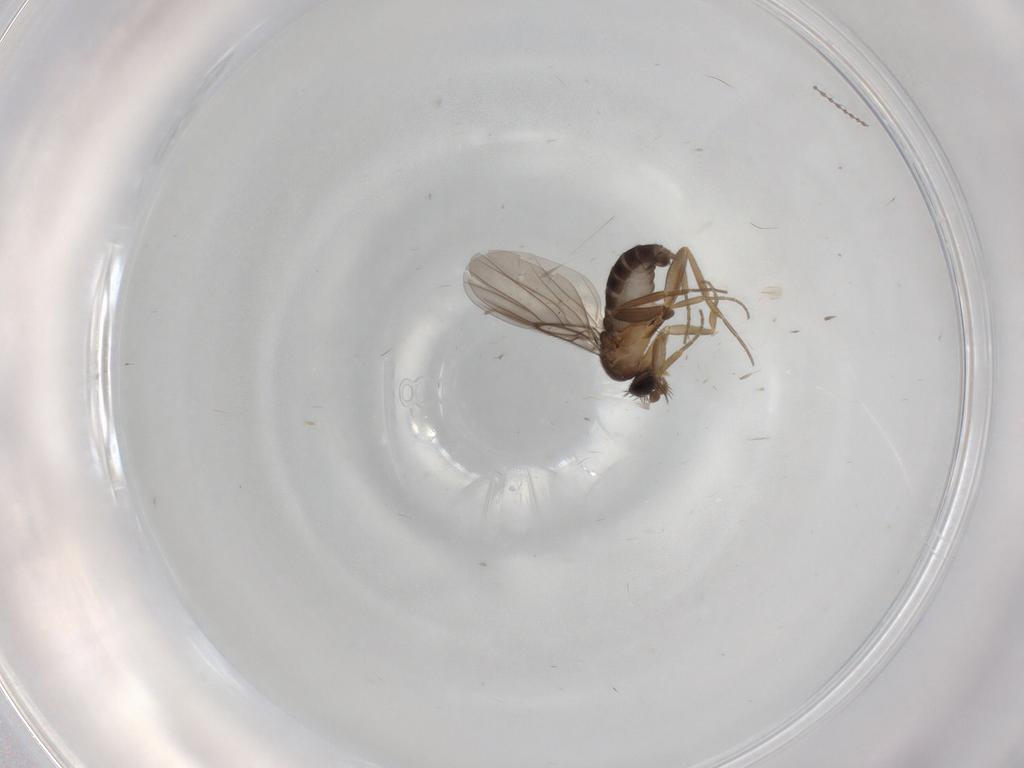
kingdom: Animalia
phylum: Arthropoda
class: Insecta
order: Diptera
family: Cecidomyiidae
